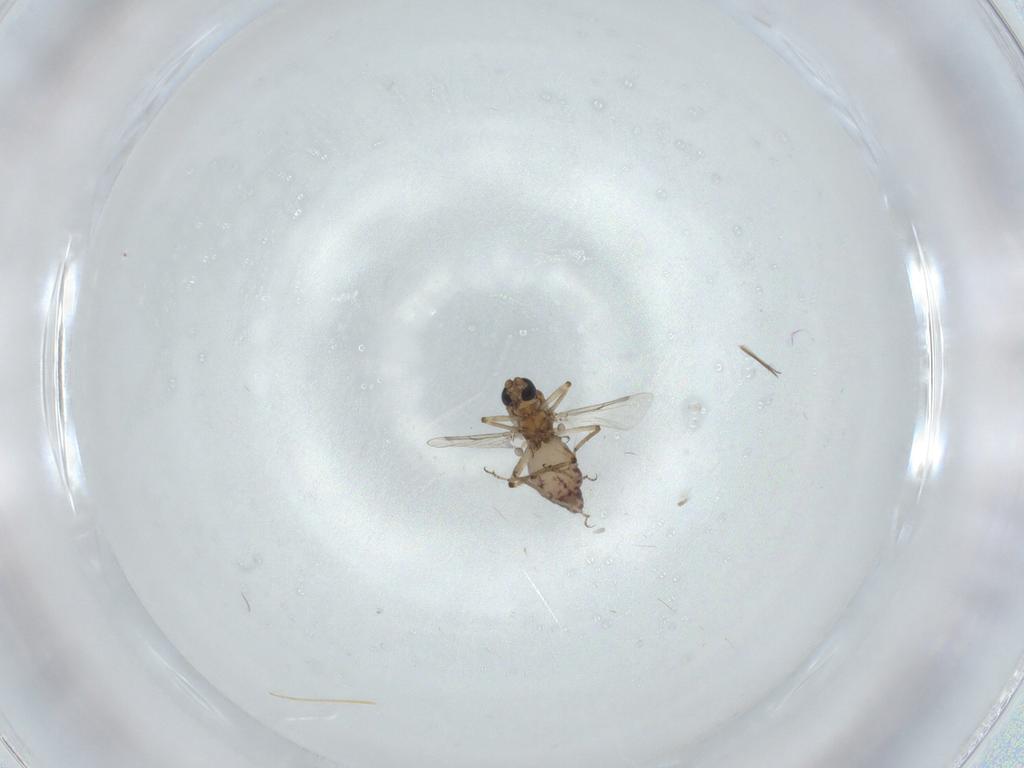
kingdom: Animalia
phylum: Arthropoda
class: Insecta
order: Diptera
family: Ceratopogonidae
